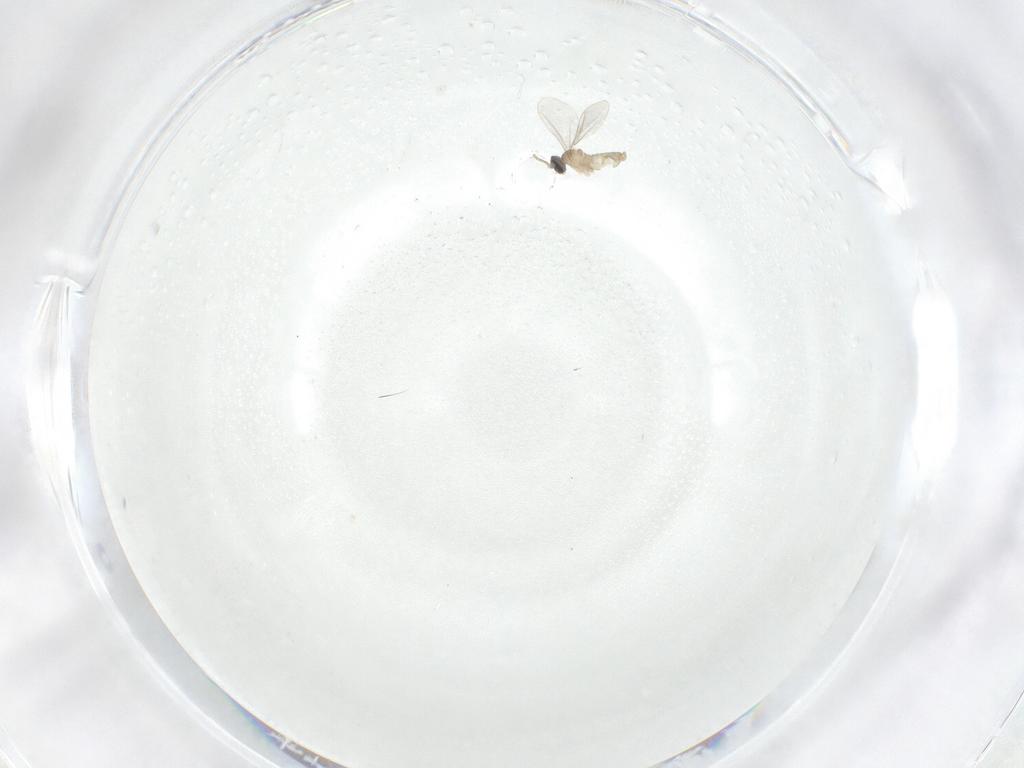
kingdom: Animalia
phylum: Arthropoda
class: Insecta
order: Diptera
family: Cecidomyiidae
